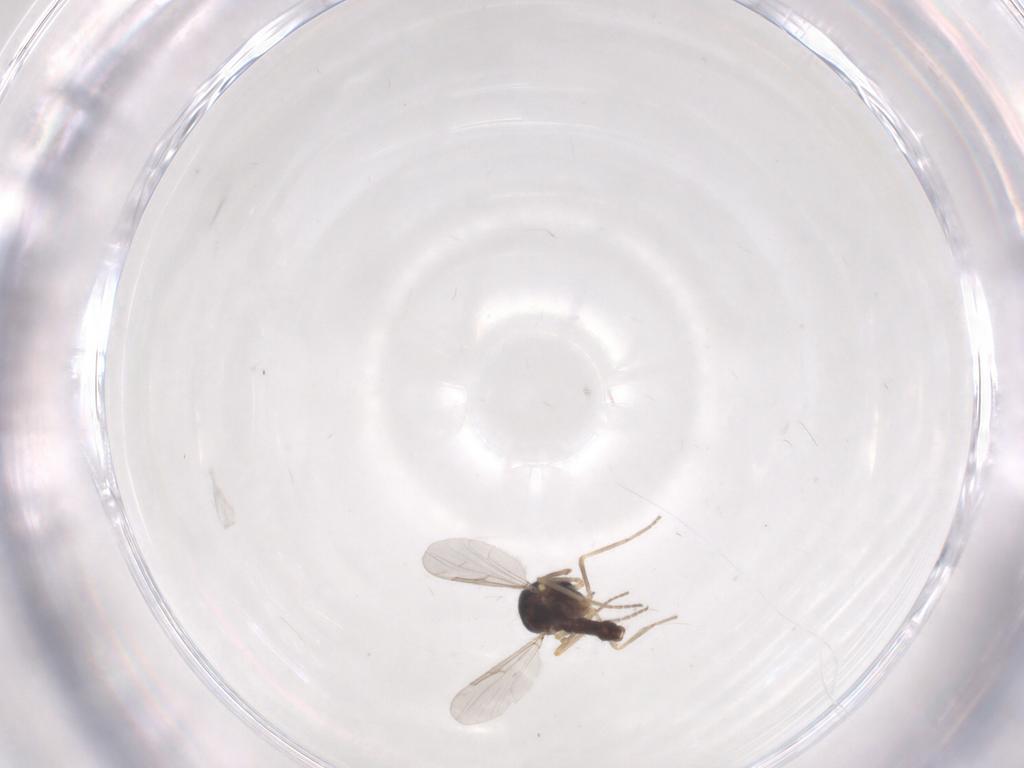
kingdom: Animalia
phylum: Arthropoda
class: Insecta
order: Diptera
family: Ceratopogonidae
